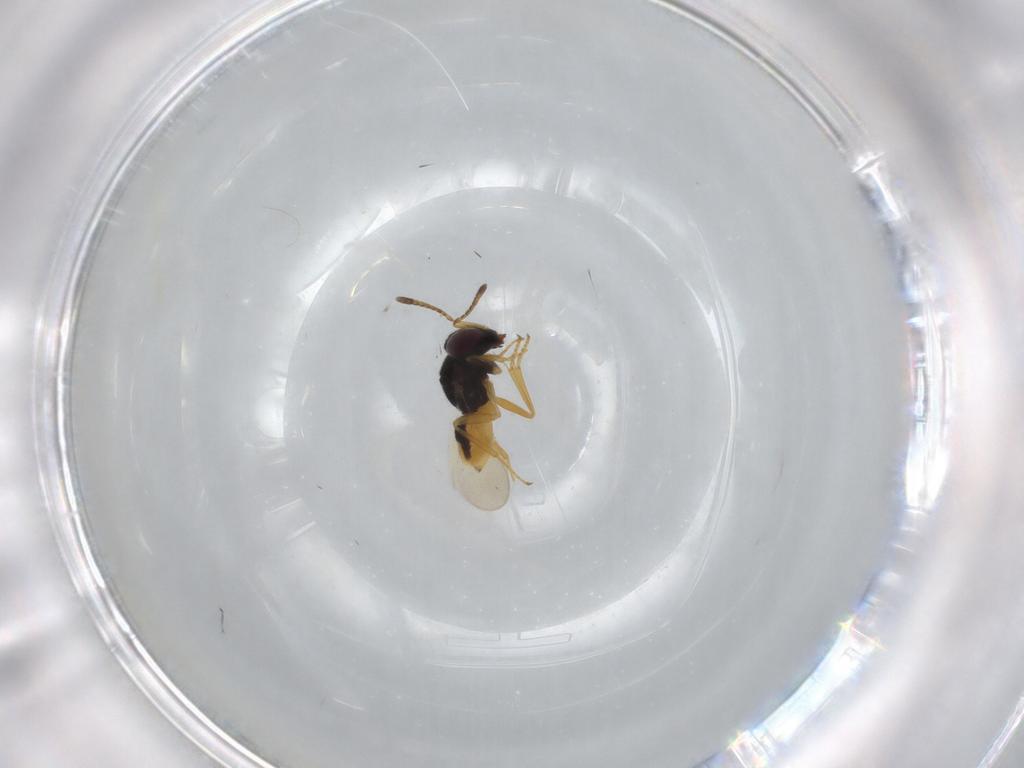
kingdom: Animalia
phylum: Arthropoda
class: Insecta
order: Hymenoptera
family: Encyrtidae
